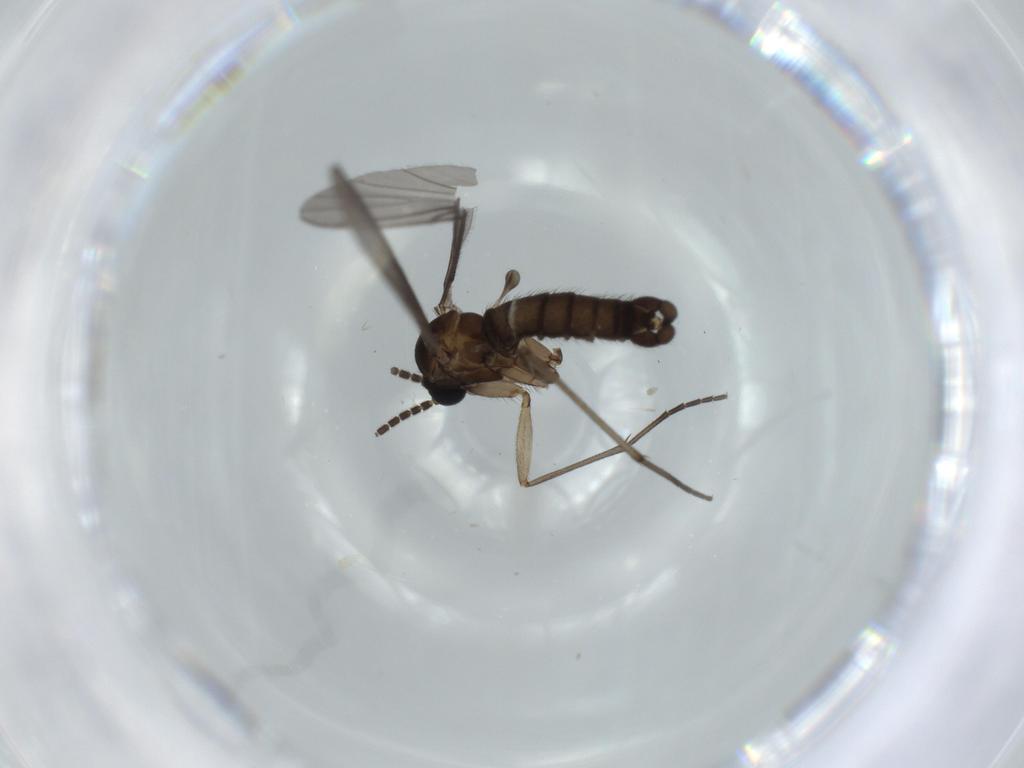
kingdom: Animalia
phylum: Arthropoda
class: Insecta
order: Diptera
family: Sciaridae
